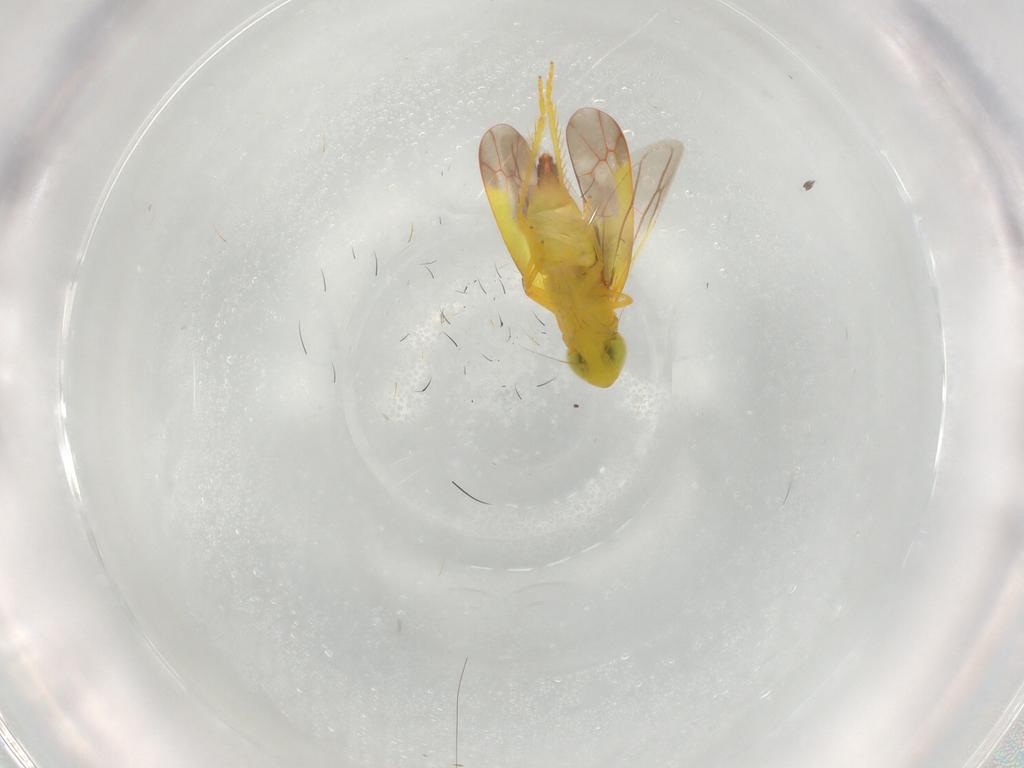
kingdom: Animalia
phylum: Arthropoda
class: Insecta
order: Hemiptera
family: Cicadellidae
